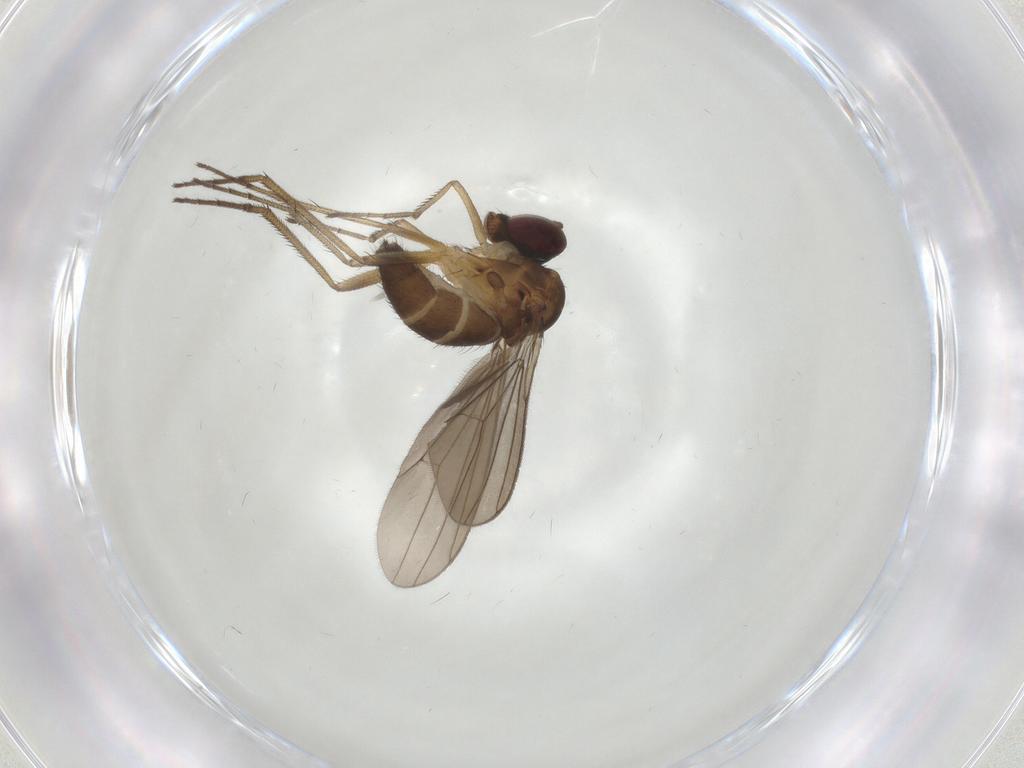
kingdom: Animalia
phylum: Arthropoda
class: Insecta
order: Diptera
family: Dolichopodidae
